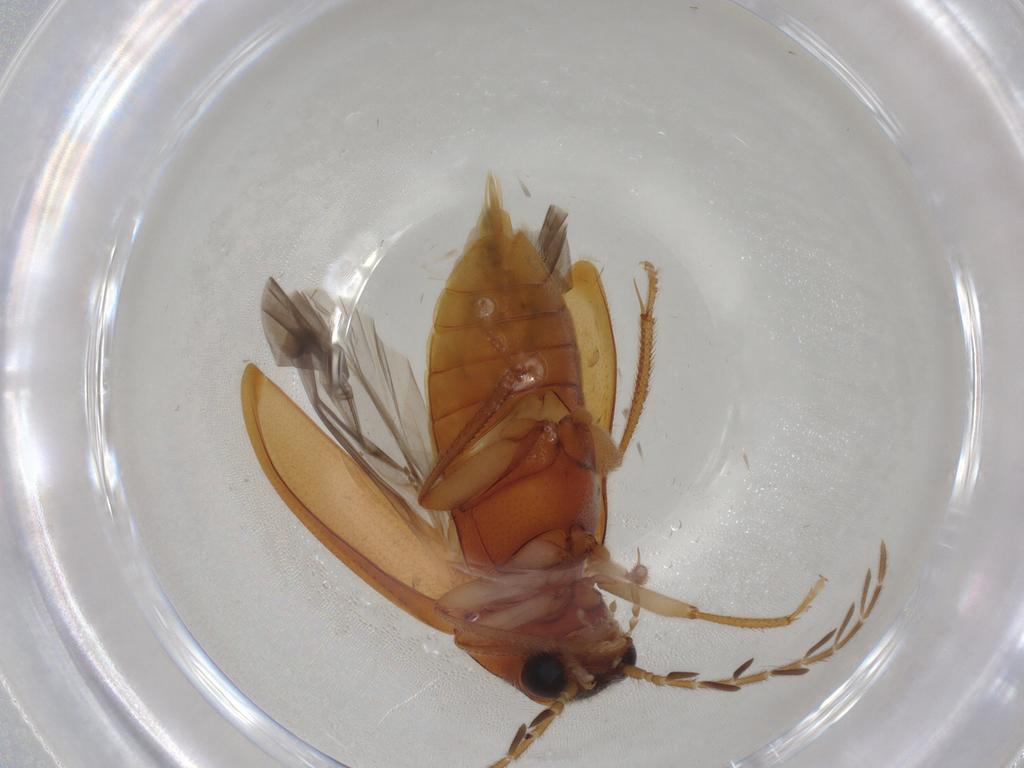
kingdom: Animalia
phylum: Arthropoda
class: Insecta
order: Coleoptera
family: Ptilodactylidae
